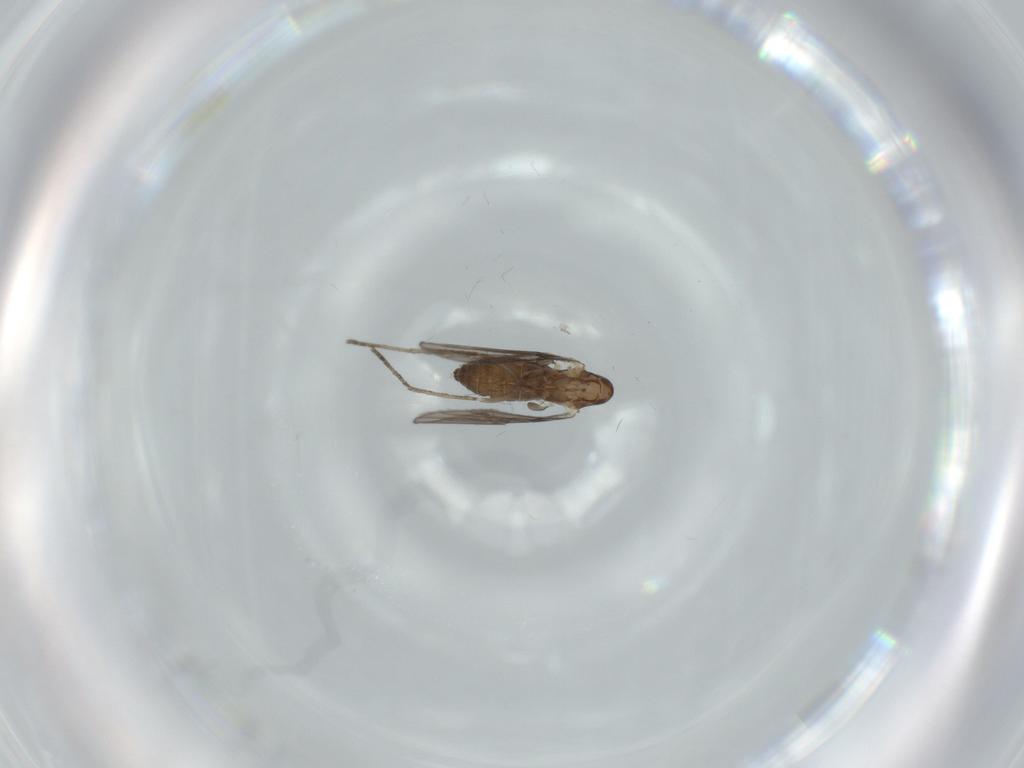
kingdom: Animalia
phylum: Arthropoda
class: Insecta
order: Diptera
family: Psychodidae
